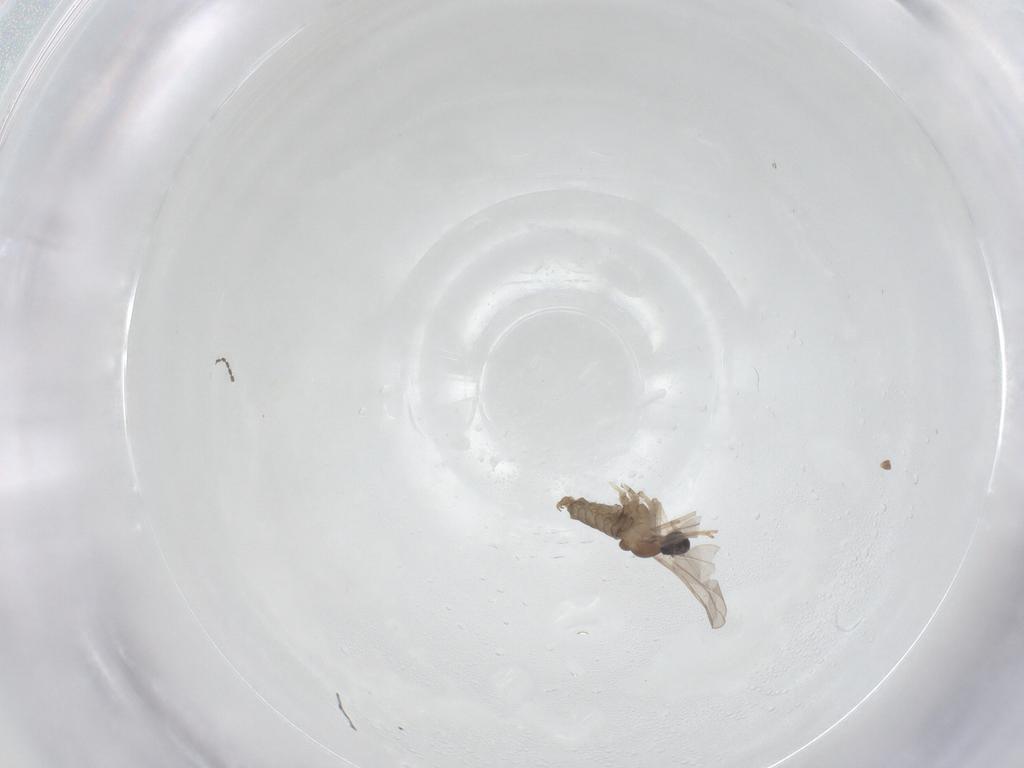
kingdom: Animalia
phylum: Arthropoda
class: Insecta
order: Diptera
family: Cecidomyiidae
